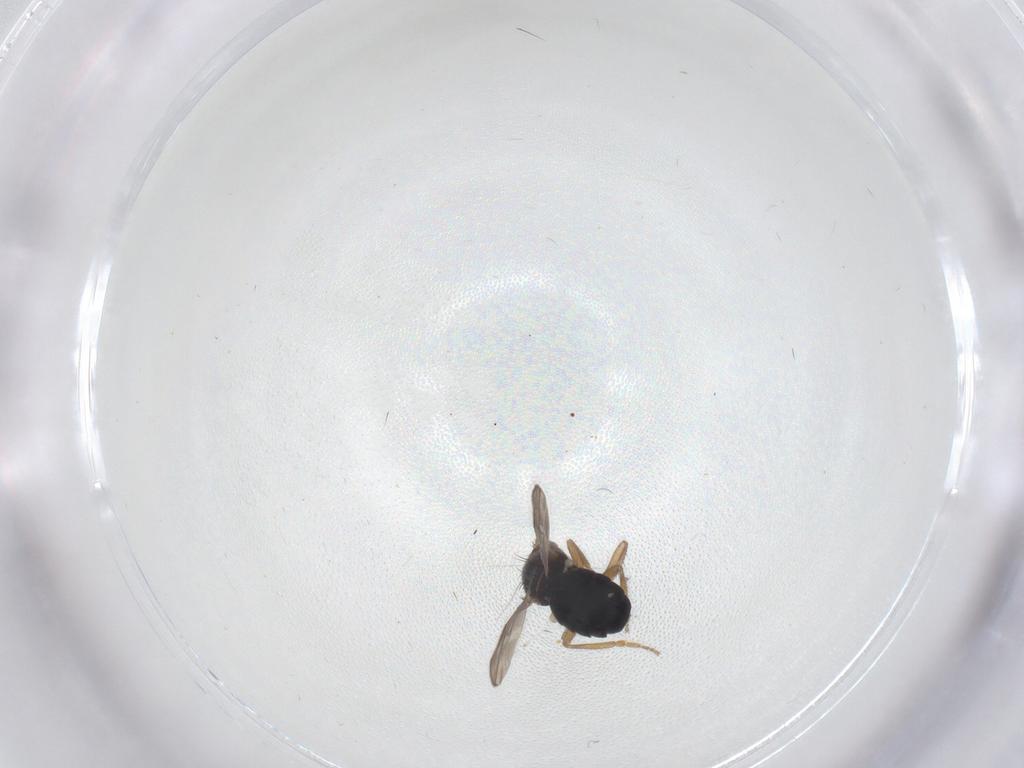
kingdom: Animalia
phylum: Arthropoda
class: Insecta
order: Diptera
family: Sphaeroceridae
